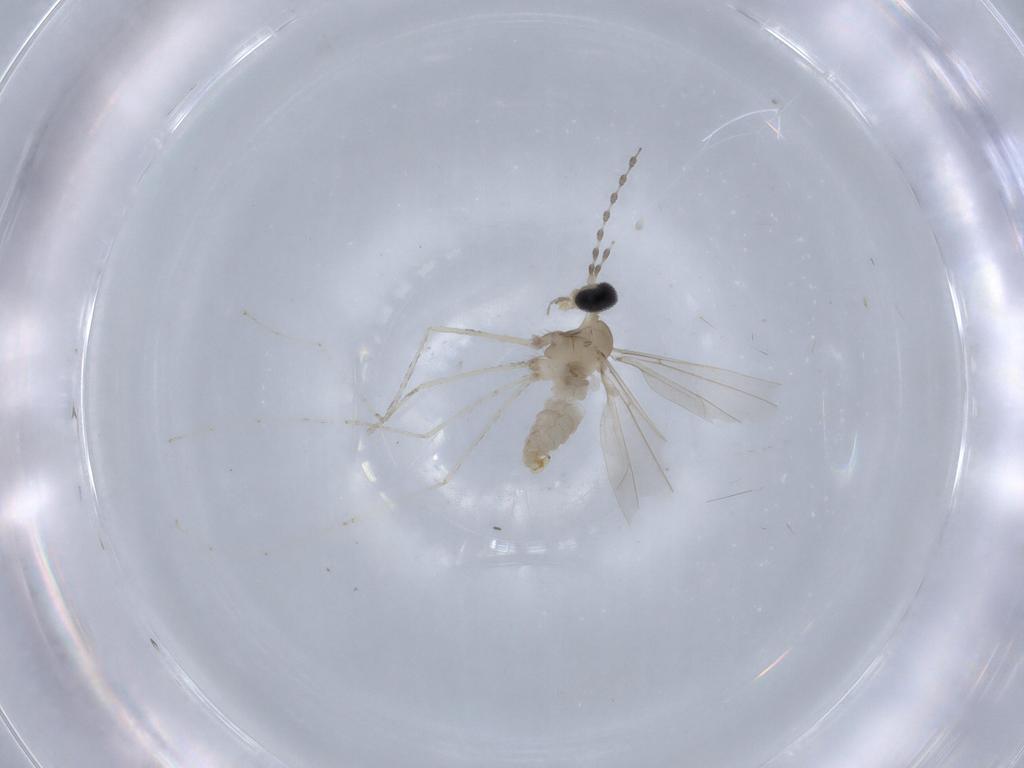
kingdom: Animalia
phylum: Arthropoda
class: Insecta
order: Diptera
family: Cecidomyiidae
